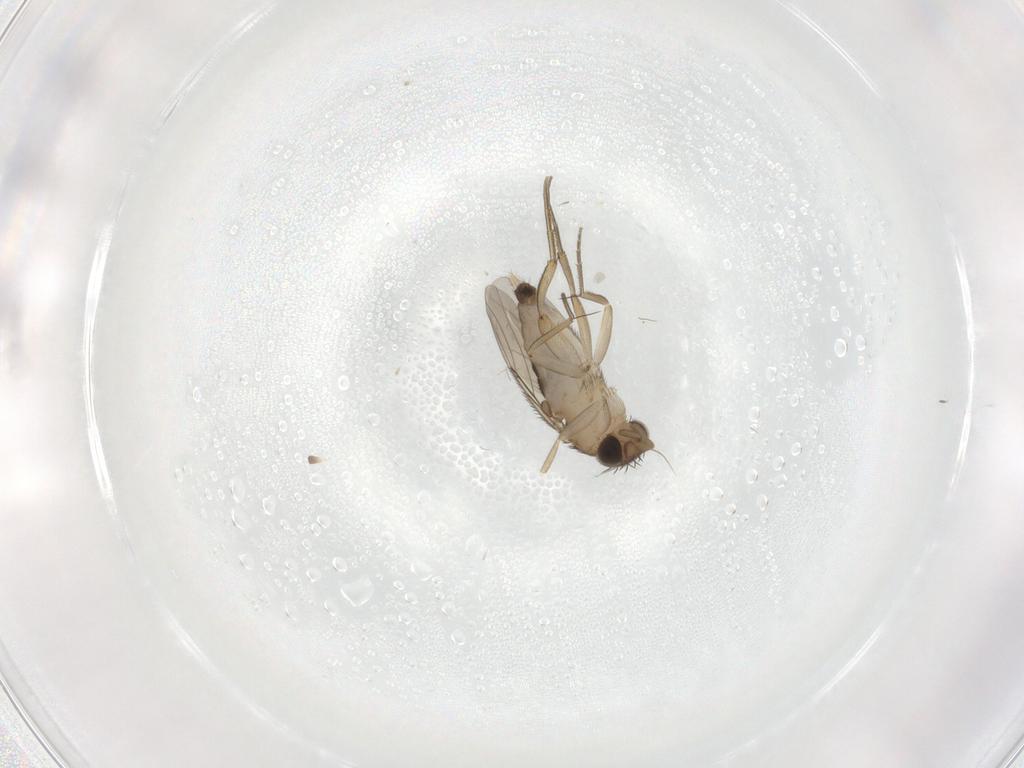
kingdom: Animalia
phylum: Arthropoda
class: Insecta
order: Diptera
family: Phoridae
